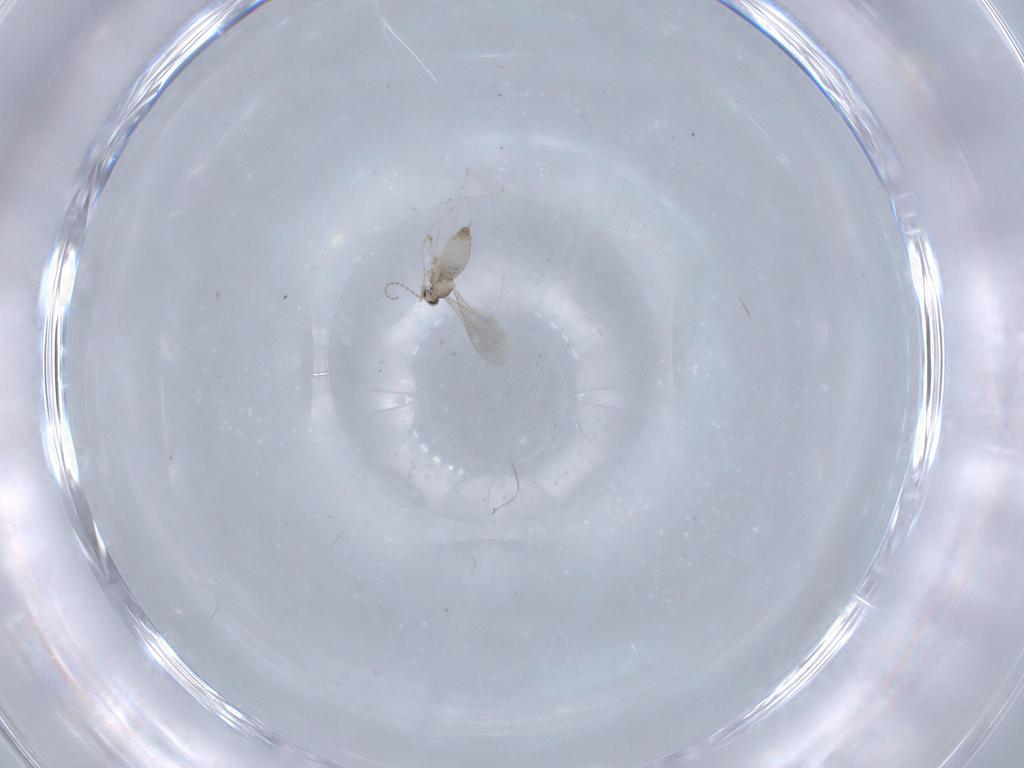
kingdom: Animalia
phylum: Arthropoda
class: Insecta
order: Diptera
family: Cecidomyiidae
